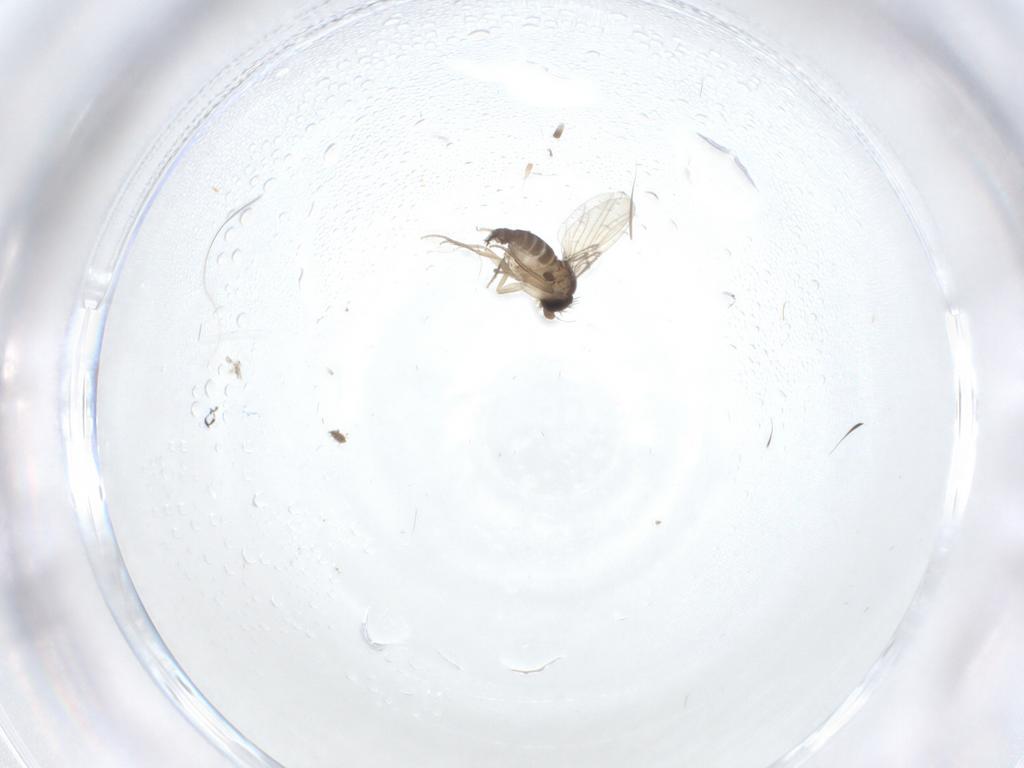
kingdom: Animalia
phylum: Arthropoda
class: Insecta
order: Diptera
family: Phoridae
